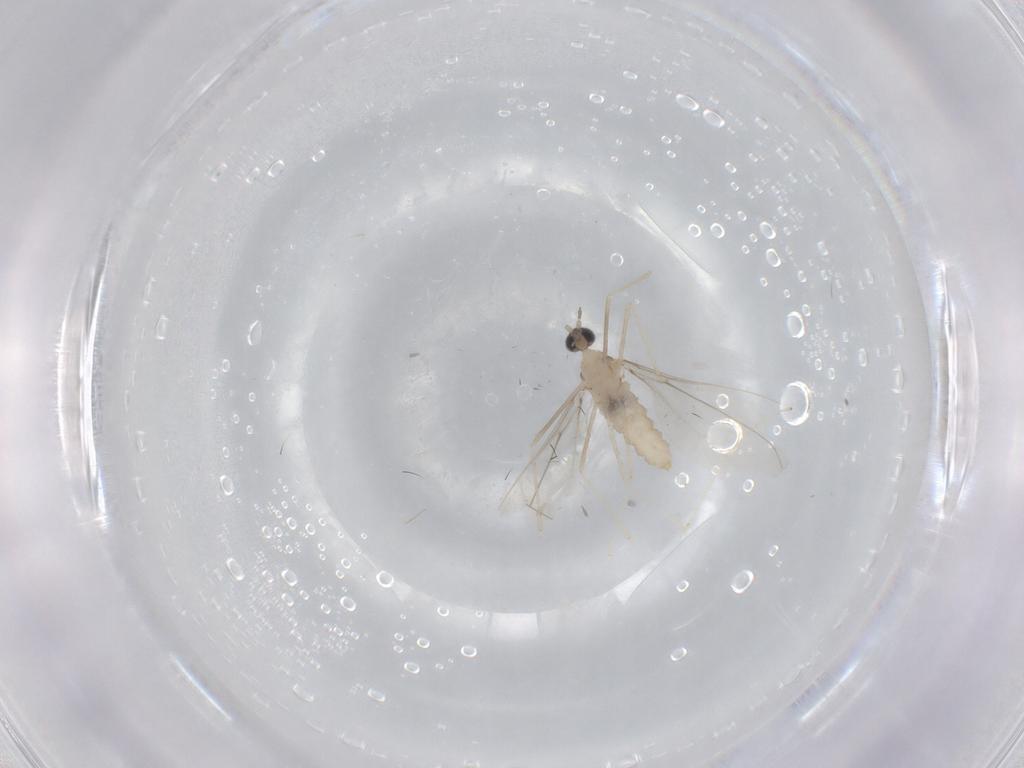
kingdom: Animalia
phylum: Arthropoda
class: Insecta
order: Diptera
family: Cecidomyiidae
